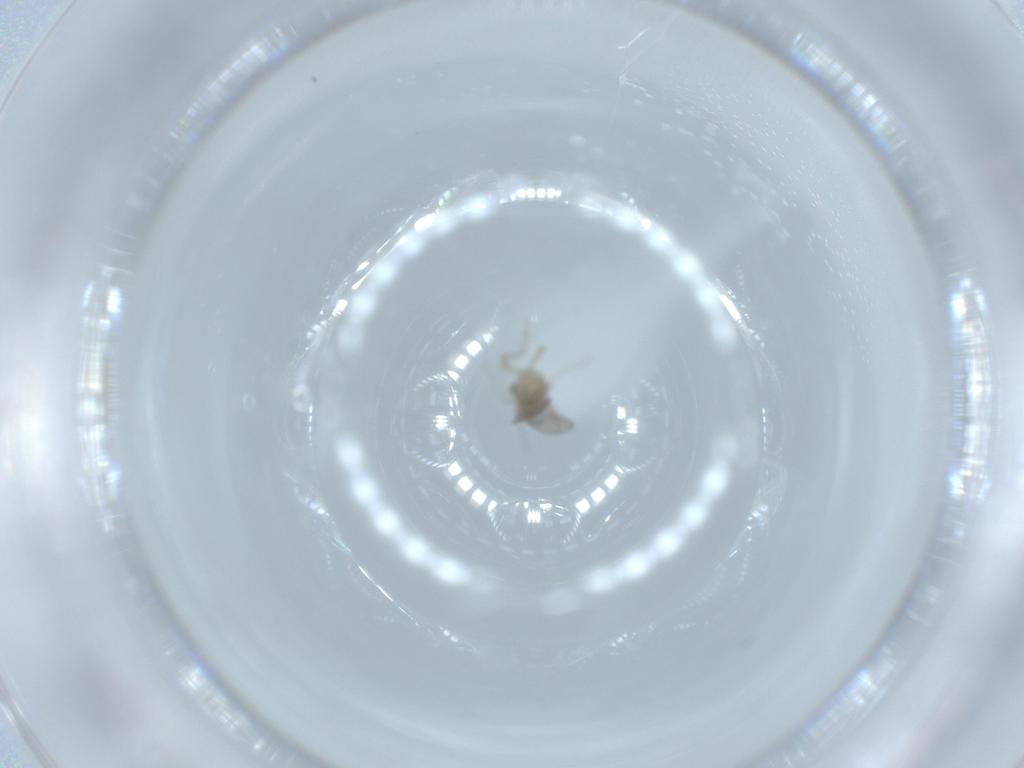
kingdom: Animalia
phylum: Arthropoda
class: Insecta
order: Diptera
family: Cecidomyiidae
